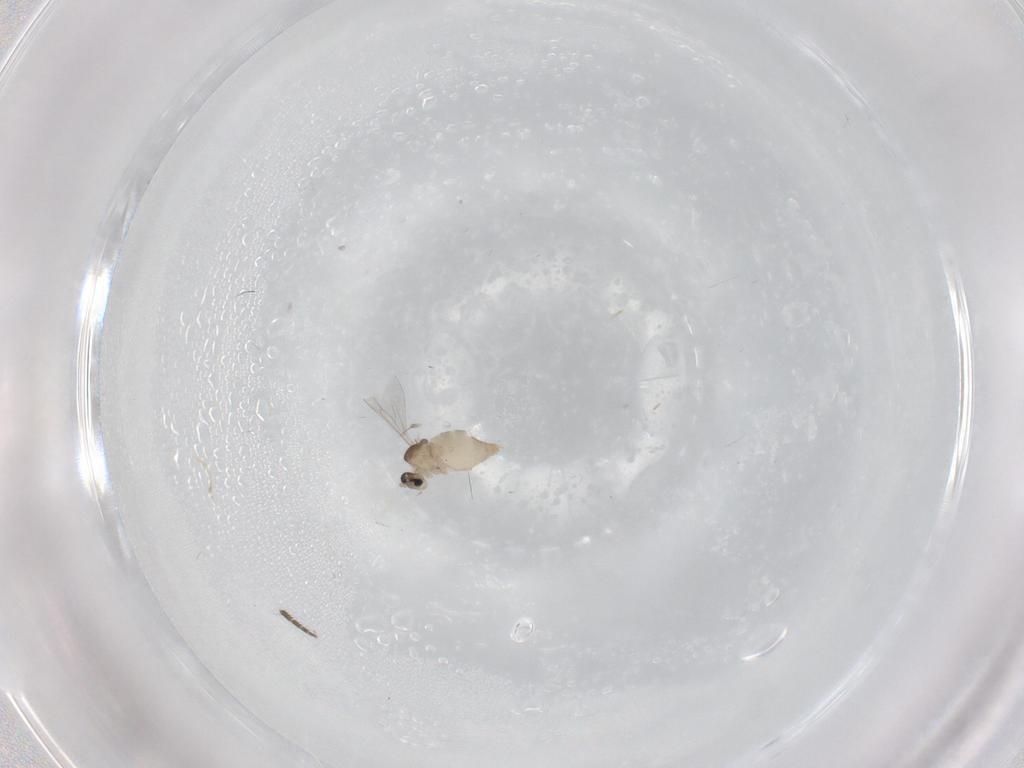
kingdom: Animalia
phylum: Arthropoda
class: Insecta
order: Diptera
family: Cecidomyiidae
